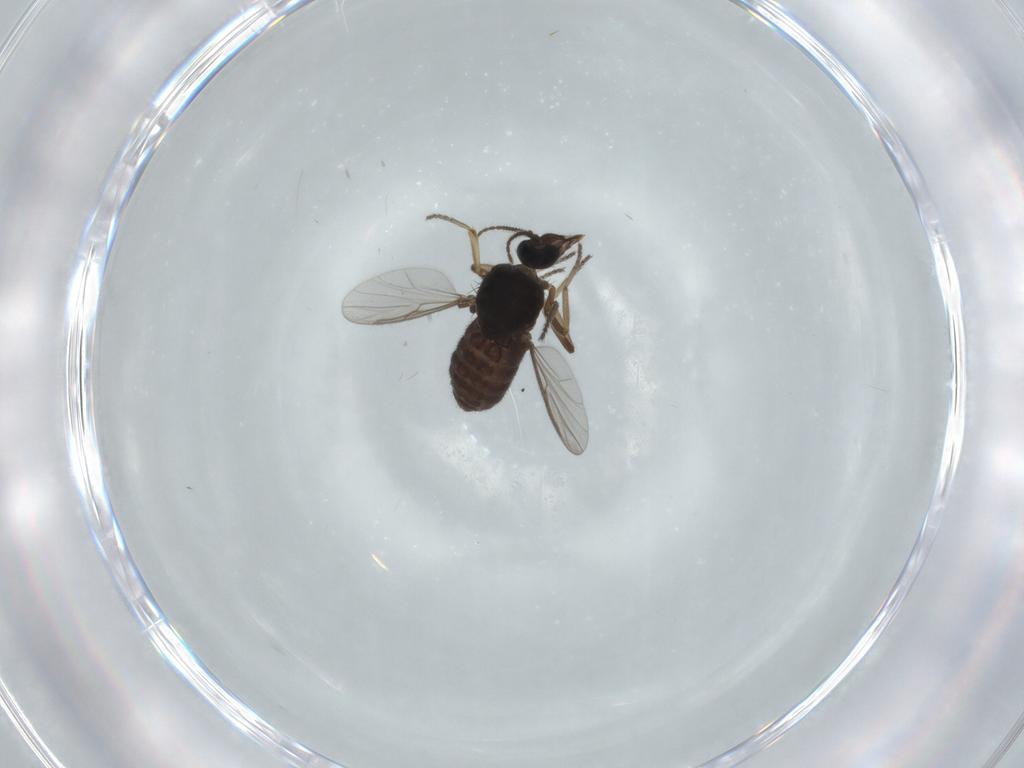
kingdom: Animalia
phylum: Arthropoda
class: Insecta
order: Diptera
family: Ceratopogonidae
